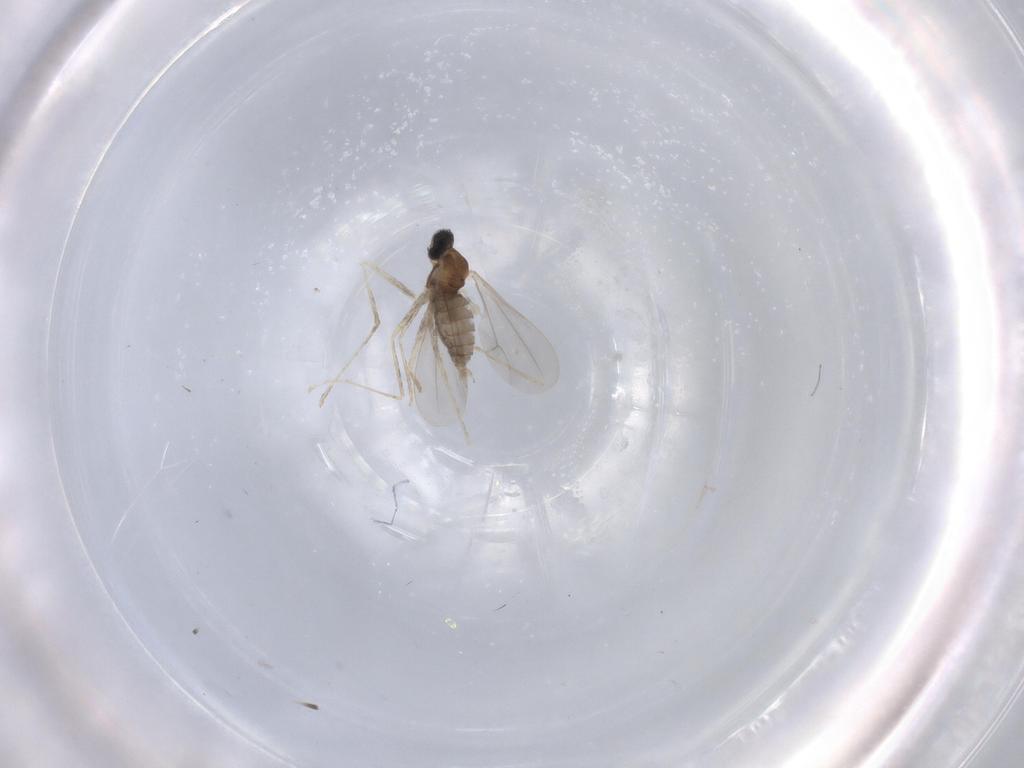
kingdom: Animalia
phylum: Arthropoda
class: Insecta
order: Diptera
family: Cecidomyiidae
